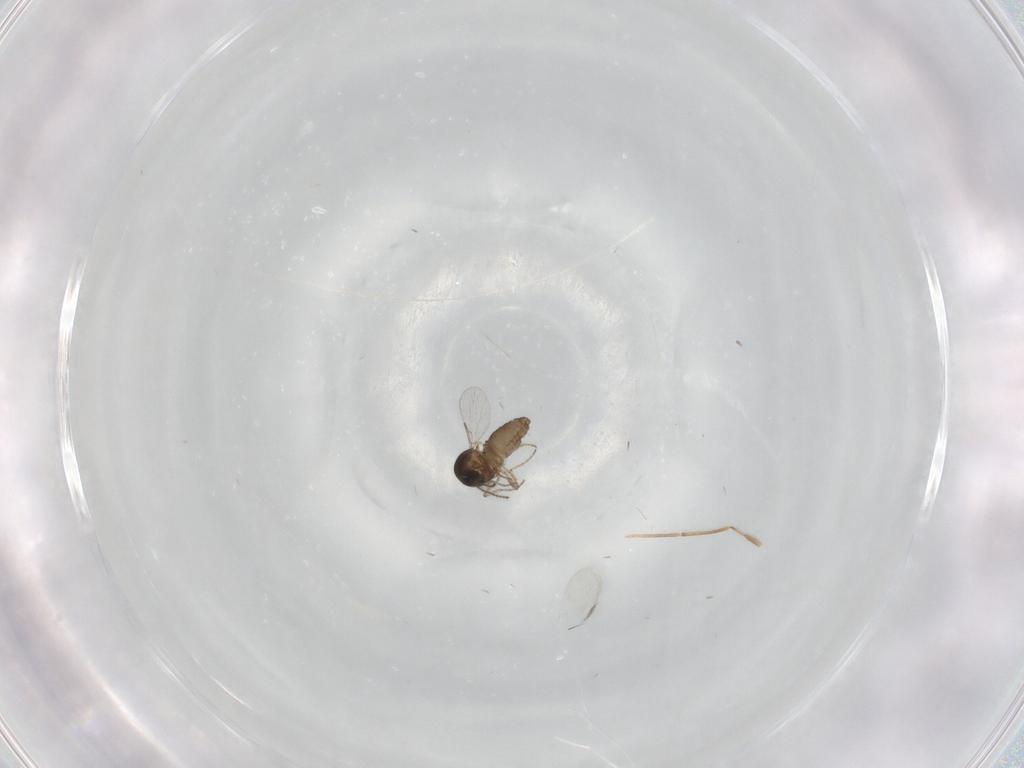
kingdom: Animalia
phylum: Arthropoda
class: Insecta
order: Diptera
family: Ceratopogonidae
